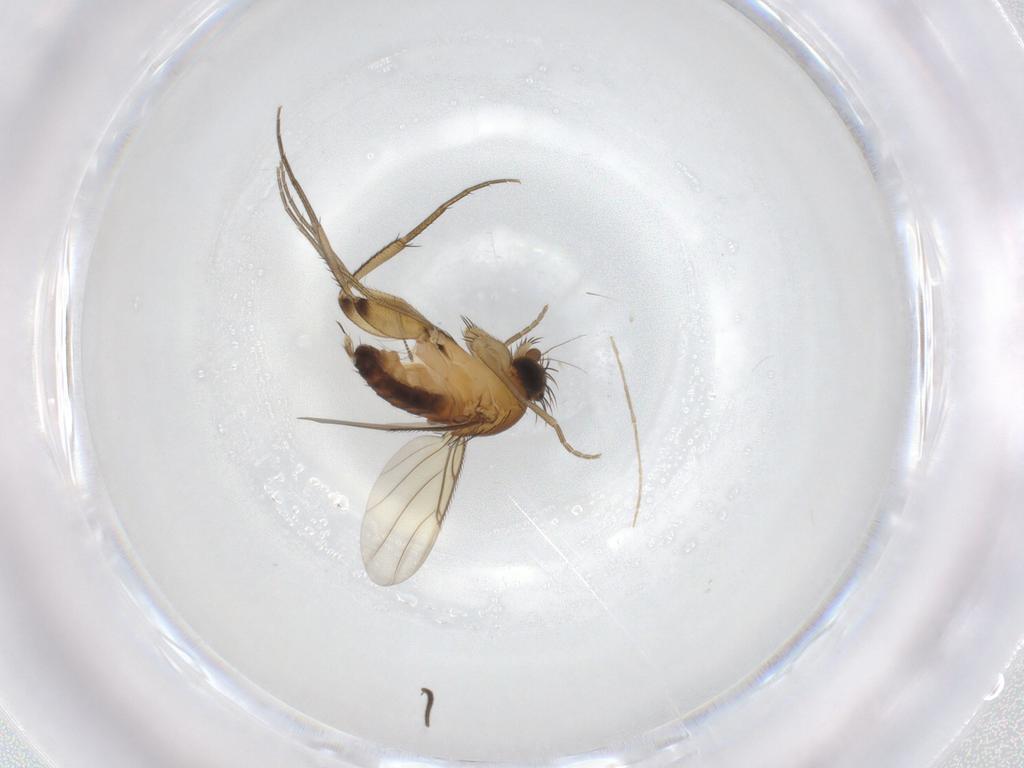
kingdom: Animalia
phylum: Arthropoda
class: Insecta
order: Diptera
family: Phoridae
